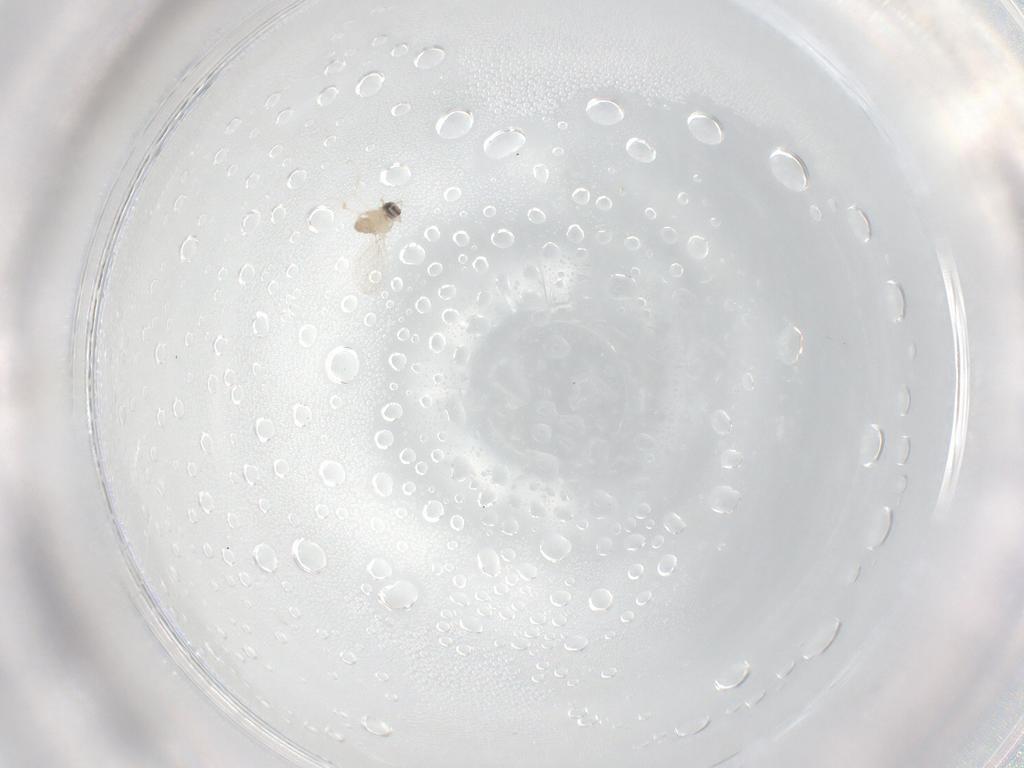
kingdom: Animalia
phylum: Arthropoda
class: Insecta
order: Diptera
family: Cecidomyiidae
